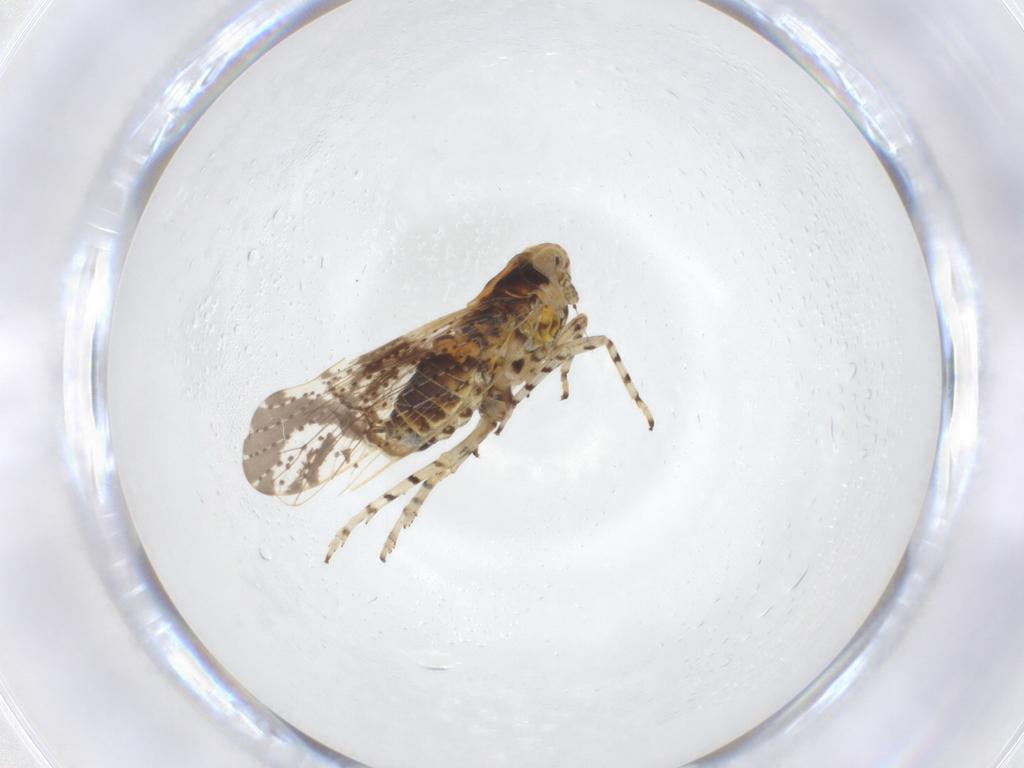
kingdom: Animalia
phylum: Arthropoda
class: Insecta
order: Hemiptera
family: Delphacidae
